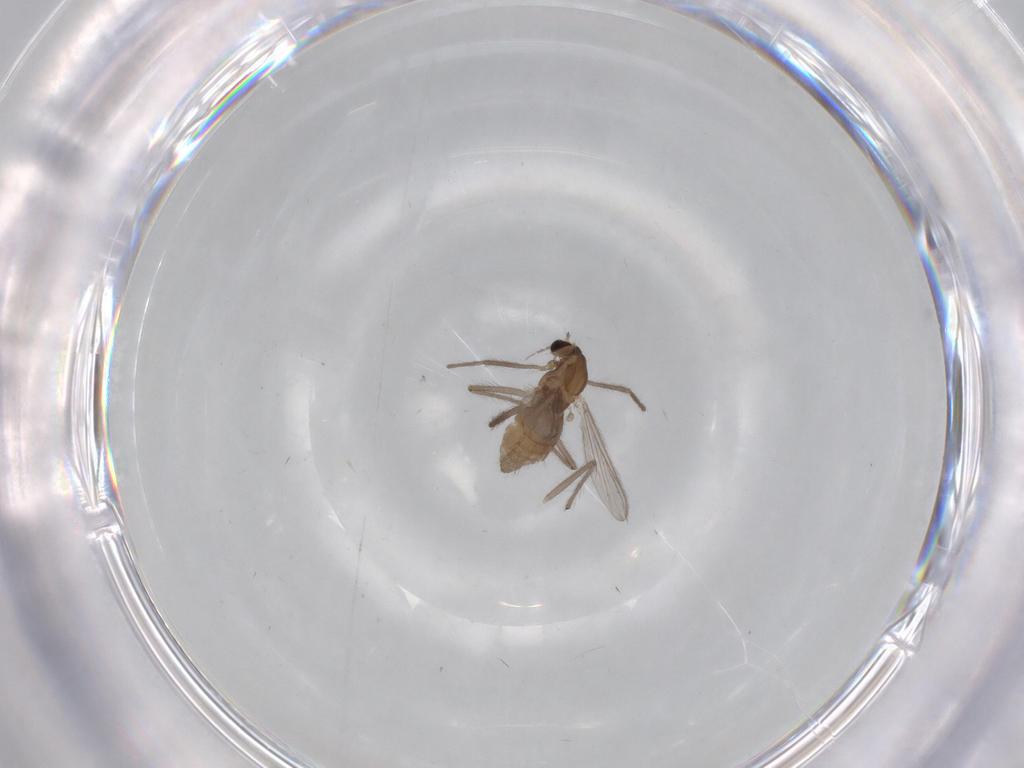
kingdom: Animalia
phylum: Arthropoda
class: Insecta
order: Diptera
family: Chironomidae
